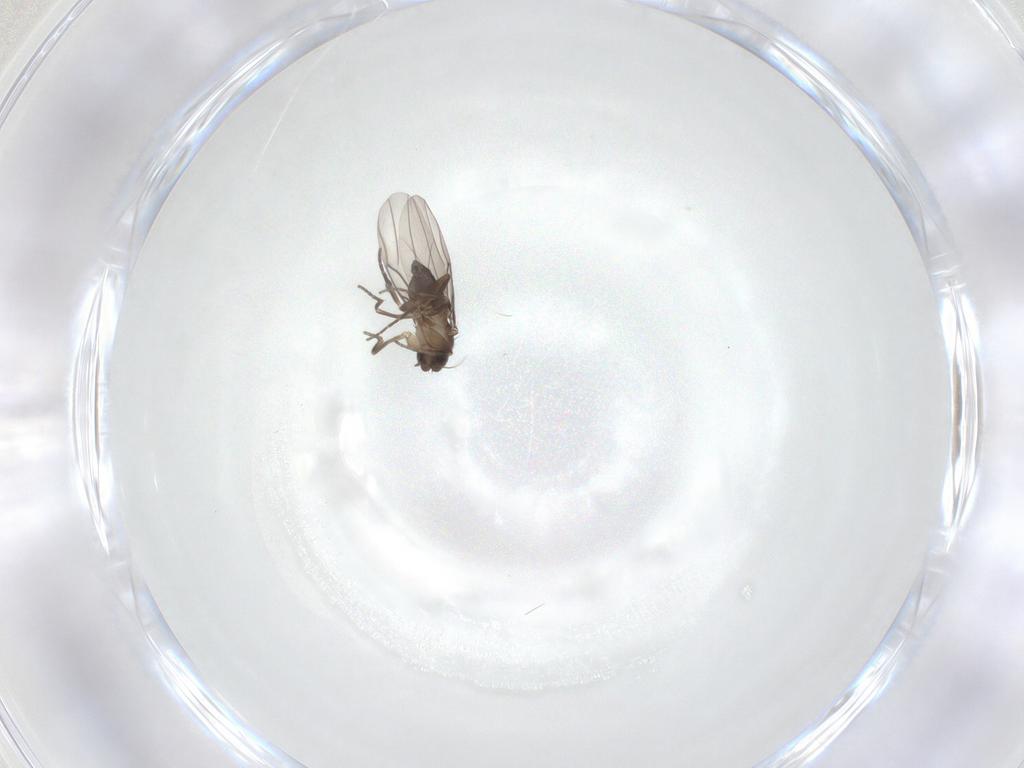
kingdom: Animalia
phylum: Arthropoda
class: Insecta
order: Diptera
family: Phoridae
